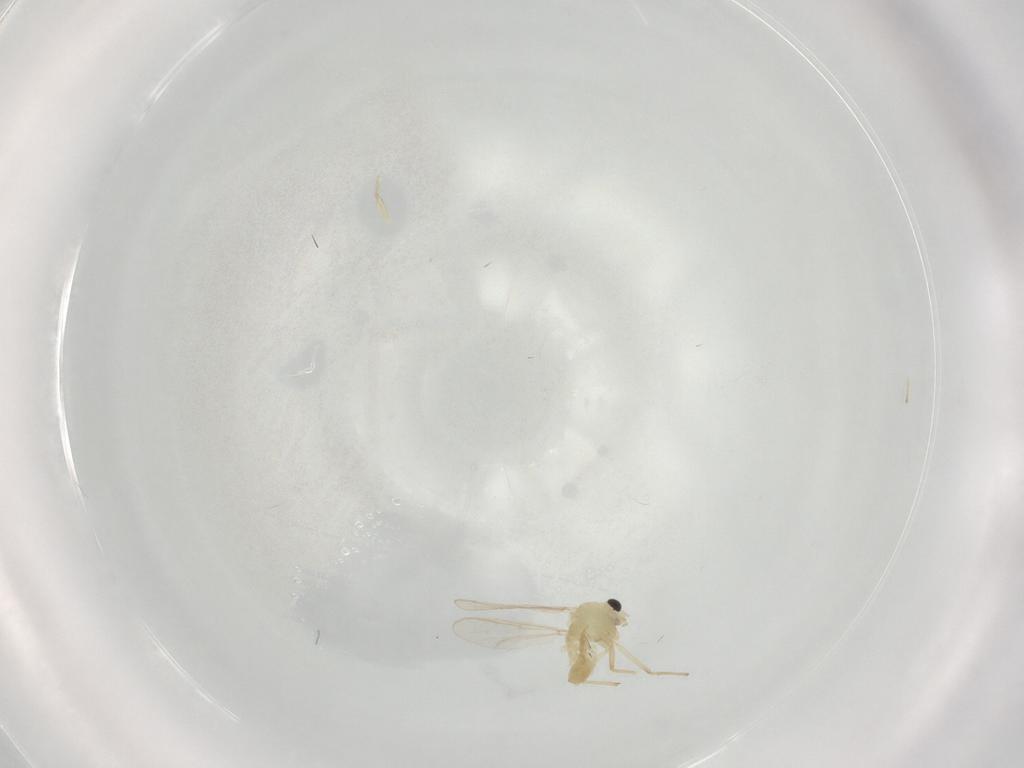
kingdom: Animalia
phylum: Arthropoda
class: Insecta
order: Diptera
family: Chironomidae
